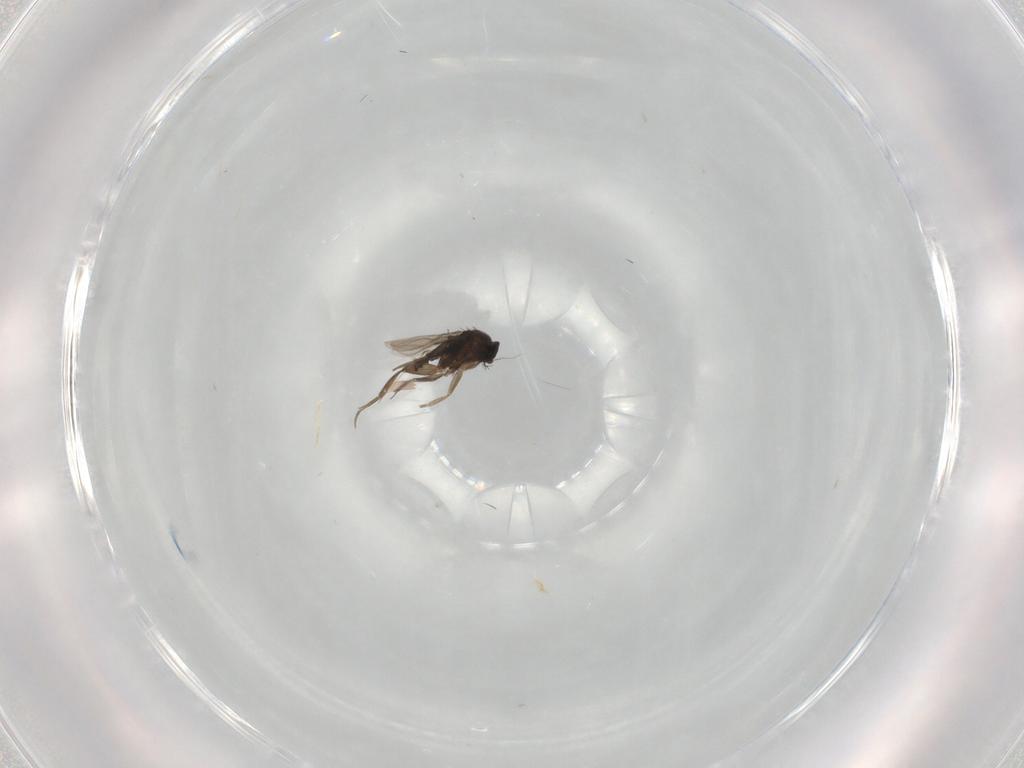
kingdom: Animalia
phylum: Arthropoda
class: Insecta
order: Diptera
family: Phoridae
